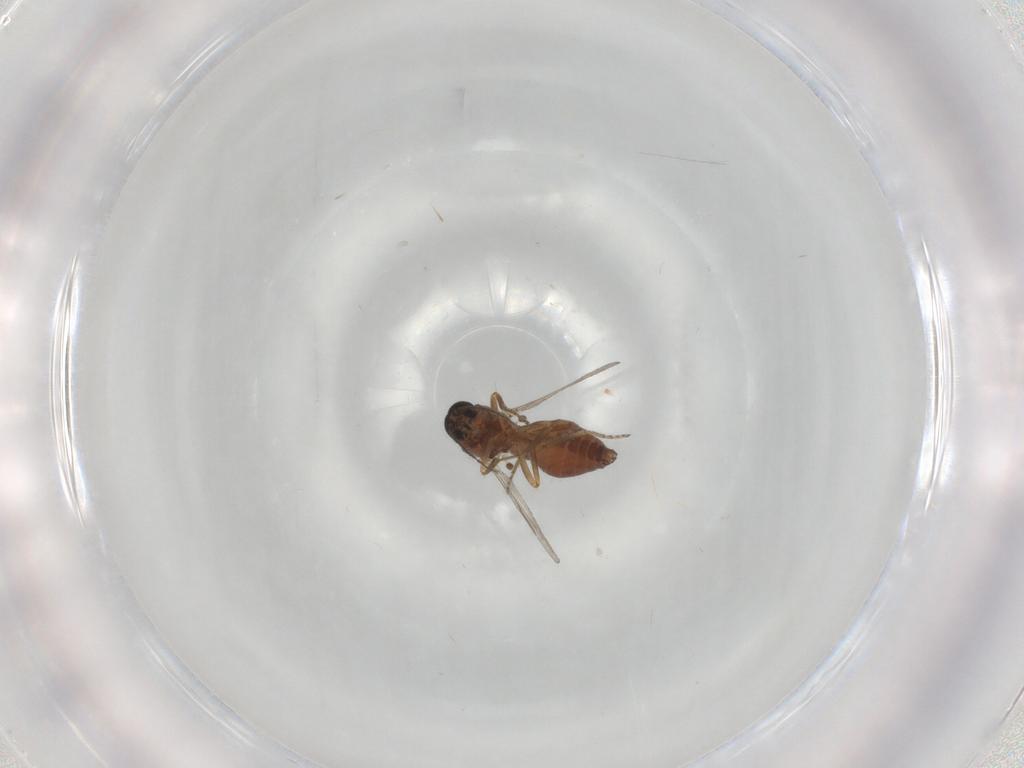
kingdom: Animalia
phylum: Arthropoda
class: Insecta
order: Diptera
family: Ceratopogonidae
